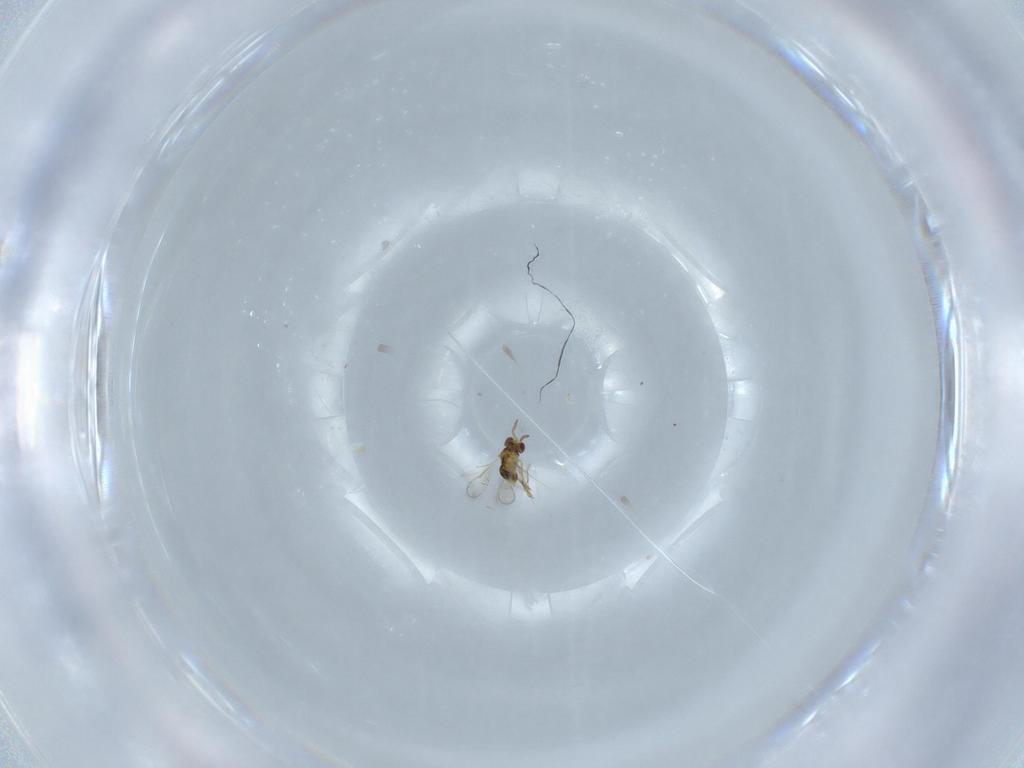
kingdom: Animalia
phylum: Arthropoda
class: Insecta
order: Hymenoptera
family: Aphelinidae
